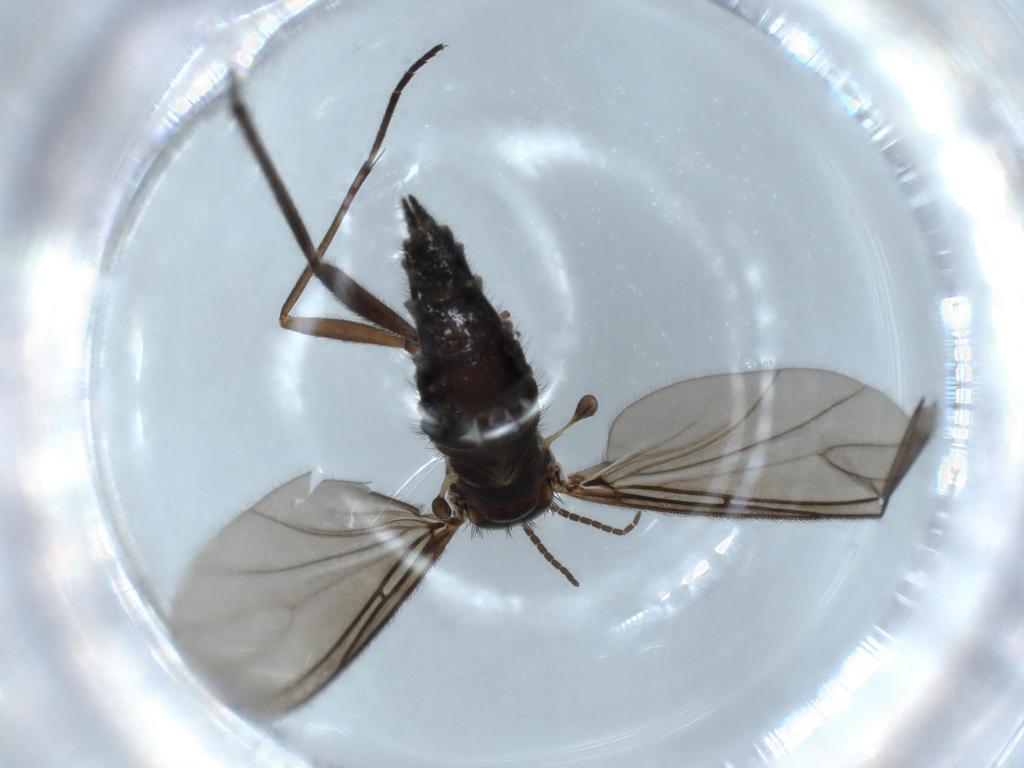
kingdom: Animalia
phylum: Arthropoda
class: Insecta
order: Diptera
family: Sciaridae
